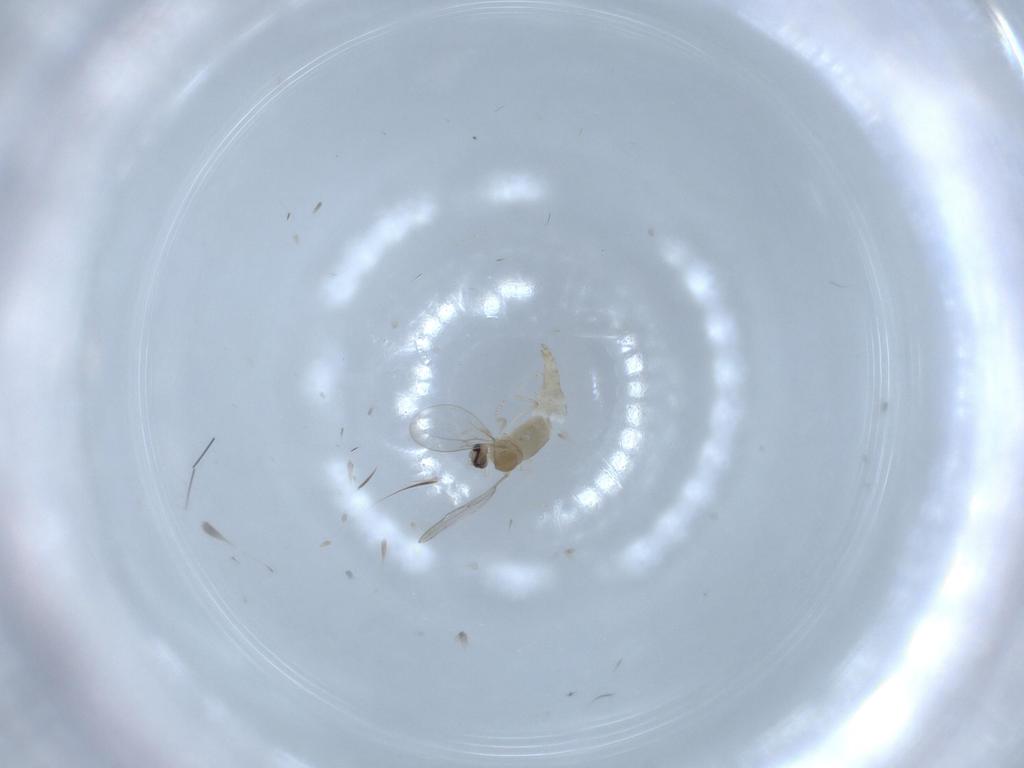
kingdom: Animalia
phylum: Arthropoda
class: Insecta
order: Diptera
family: Cecidomyiidae
